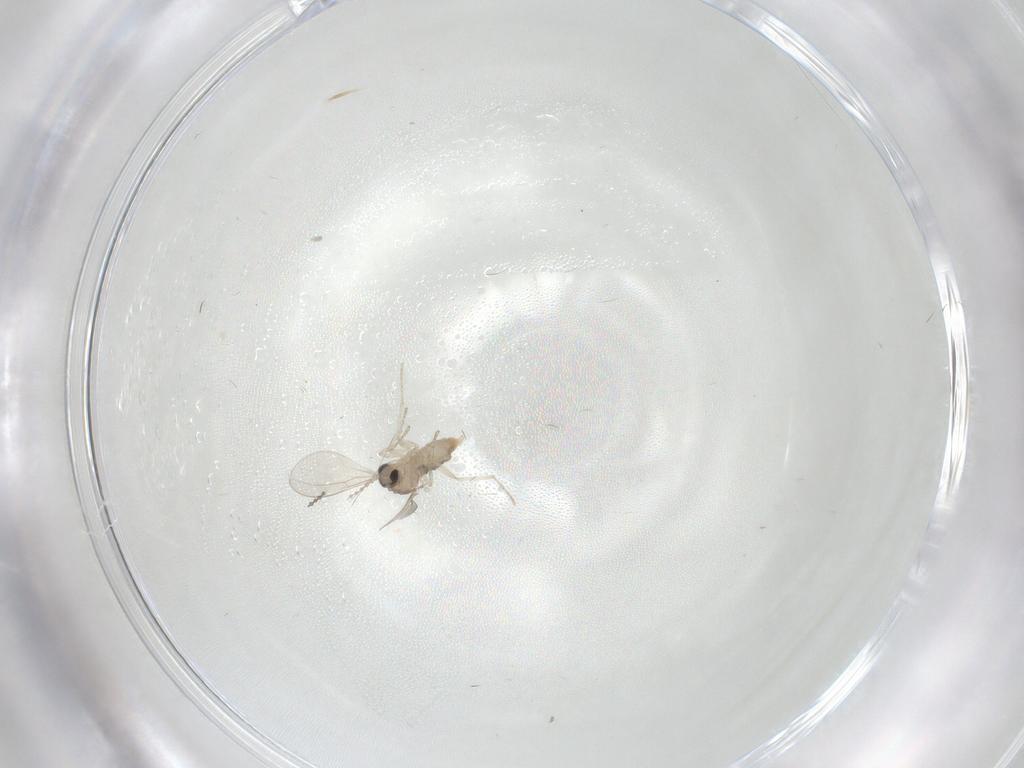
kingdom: Animalia
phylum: Arthropoda
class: Insecta
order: Diptera
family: Cecidomyiidae
